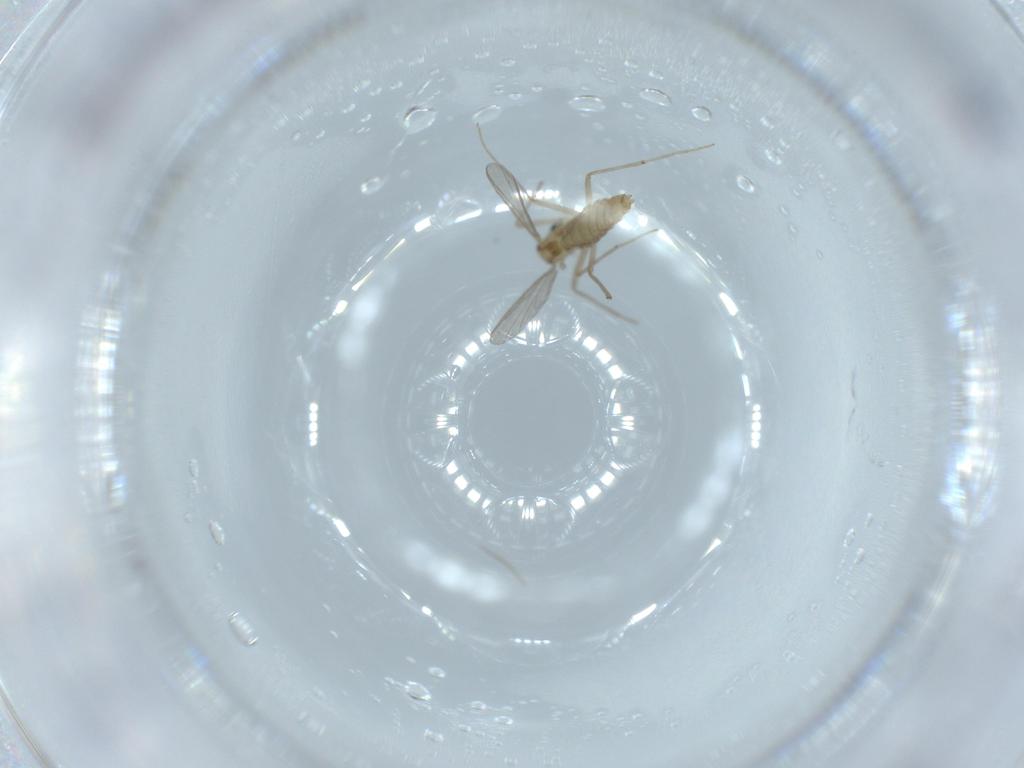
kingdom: Animalia
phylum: Arthropoda
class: Insecta
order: Diptera
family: Chironomidae
